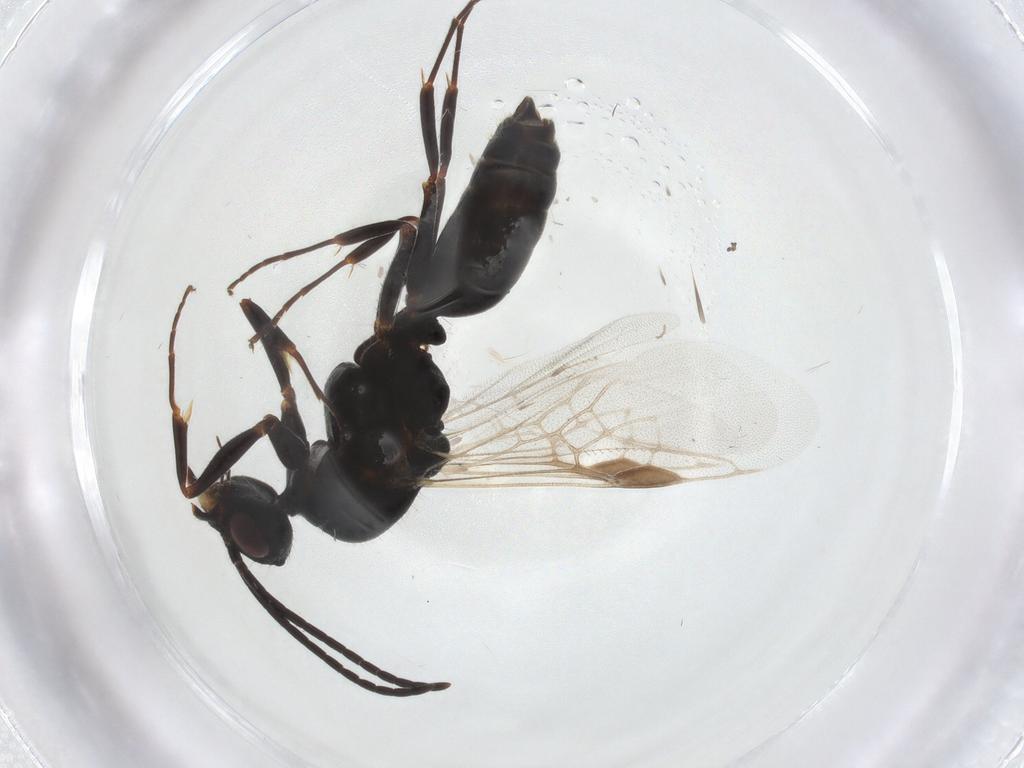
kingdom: Animalia
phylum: Arthropoda
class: Insecta
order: Hymenoptera
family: Formicidae
